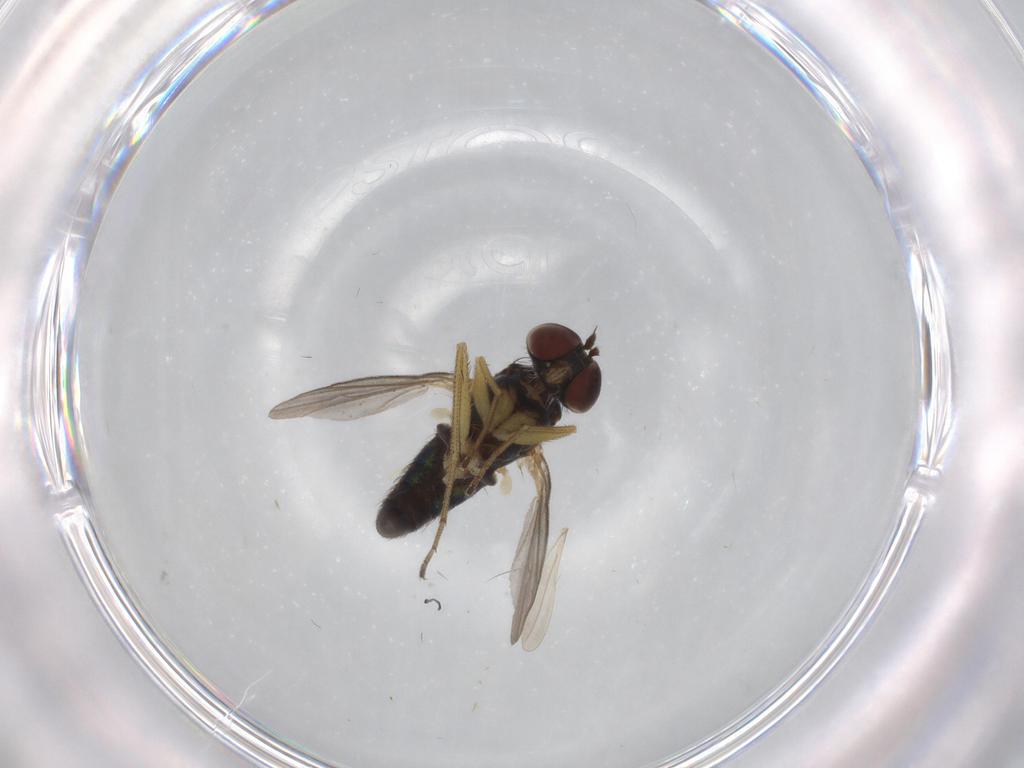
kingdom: Animalia
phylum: Arthropoda
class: Insecta
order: Diptera
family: Dolichopodidae
